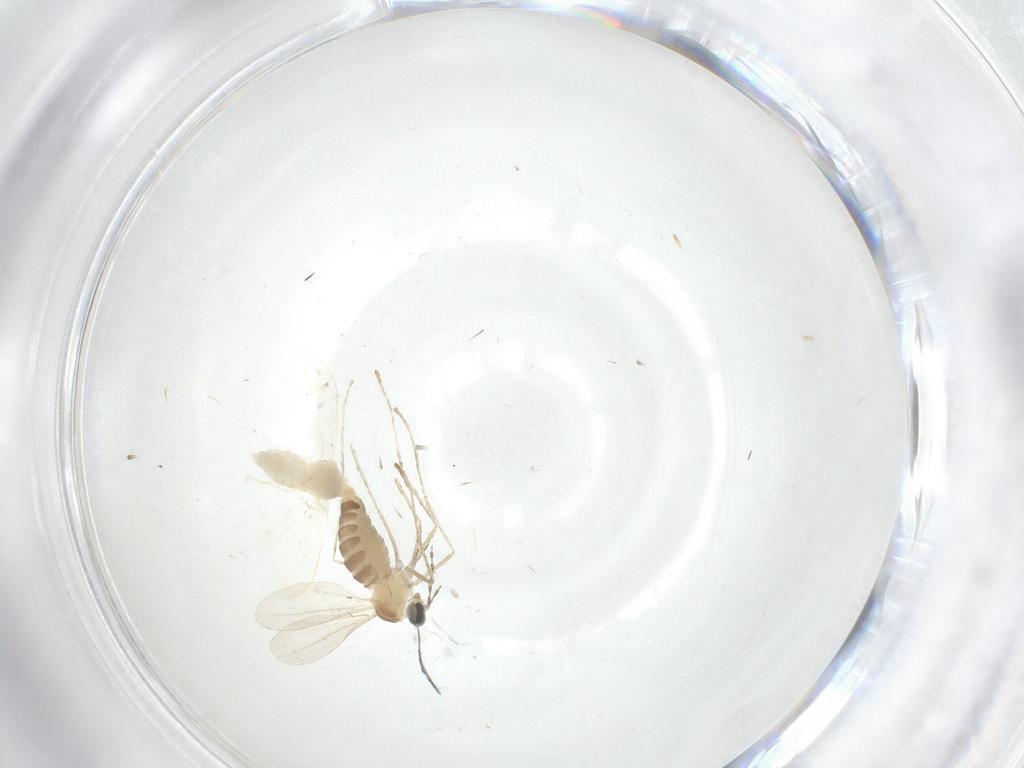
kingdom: Animalia
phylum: Arthropoda
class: Insecta
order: Diptera
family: Cecidomyiidae
